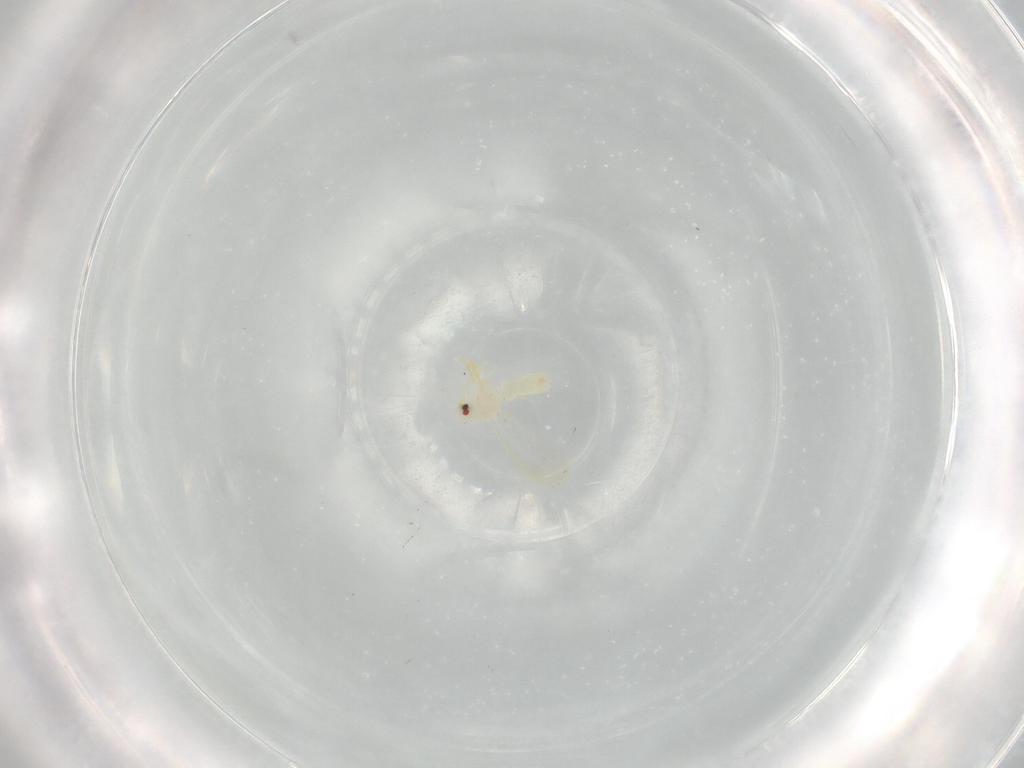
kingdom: Animalia
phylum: Arthropoda
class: Insecta
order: Hemiptera
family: Aleyrodidae
